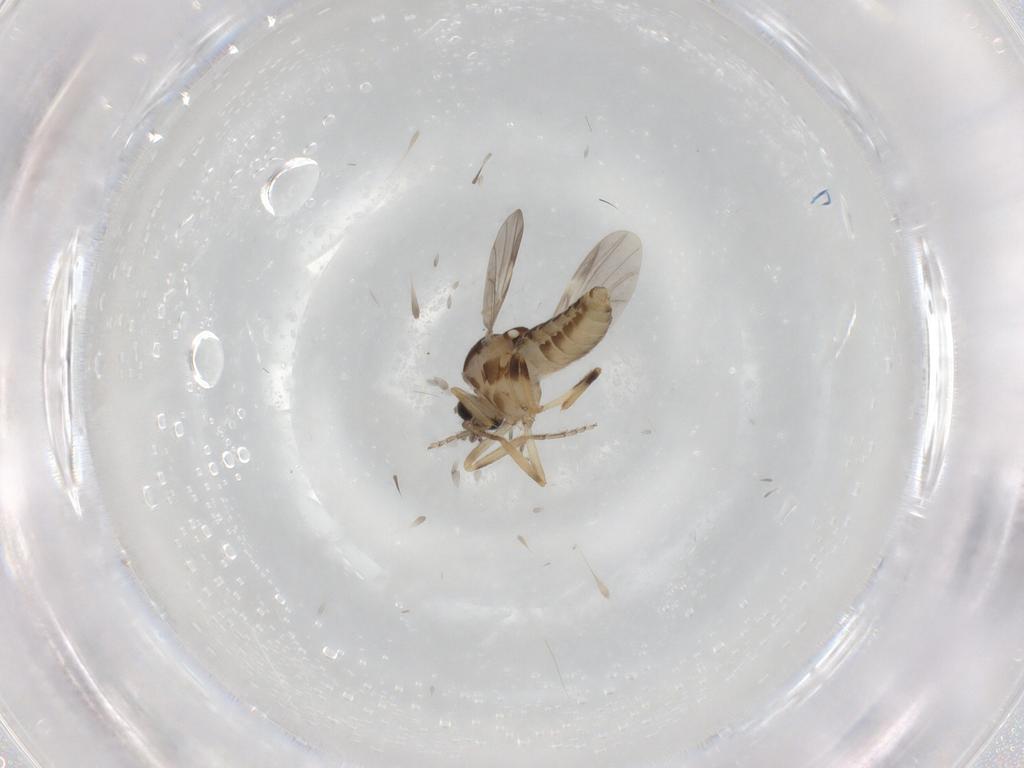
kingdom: Animalia
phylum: Arthropoda
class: Insecta
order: Diptera
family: Ceratopogonidae
